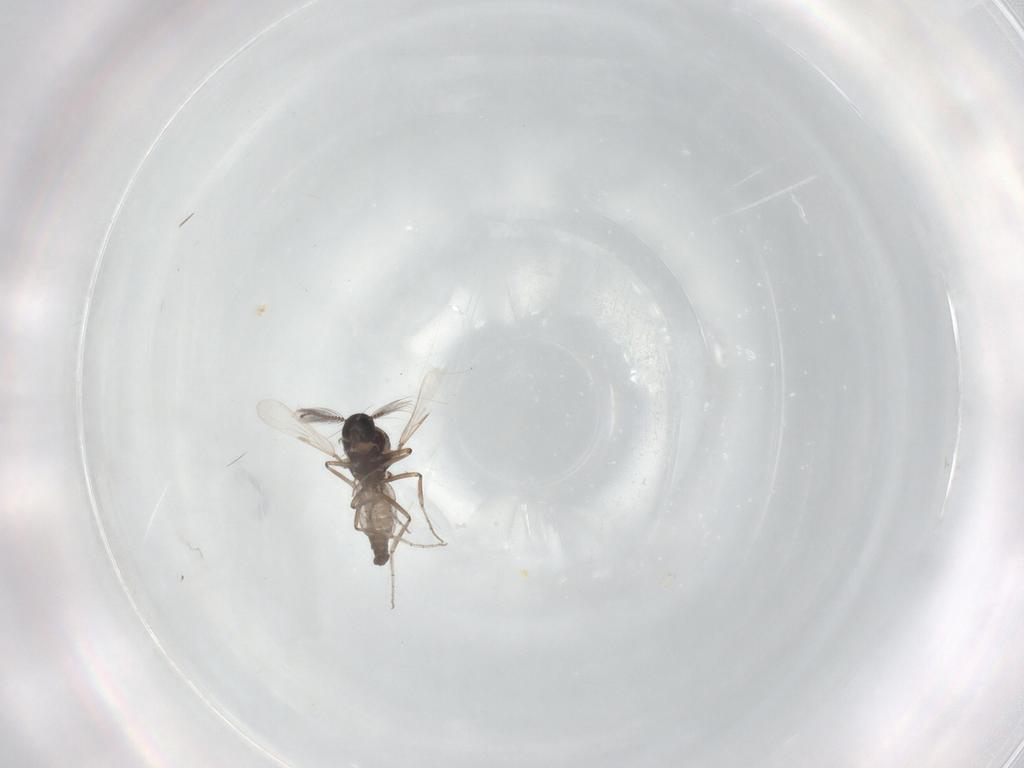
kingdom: Animalia
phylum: Arthropoda
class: Insecta
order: Diptera
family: Ceratopogonidae
